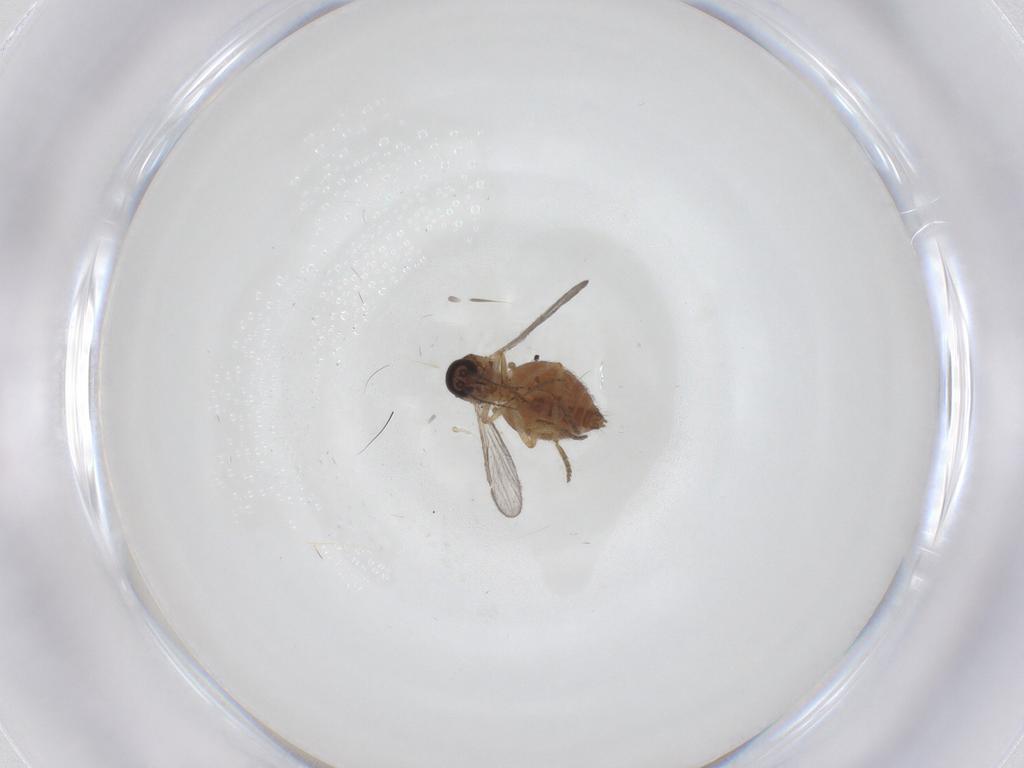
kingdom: Animalia
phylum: Arthropoda
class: Insecta
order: Diptera
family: Ceratopogonidae
